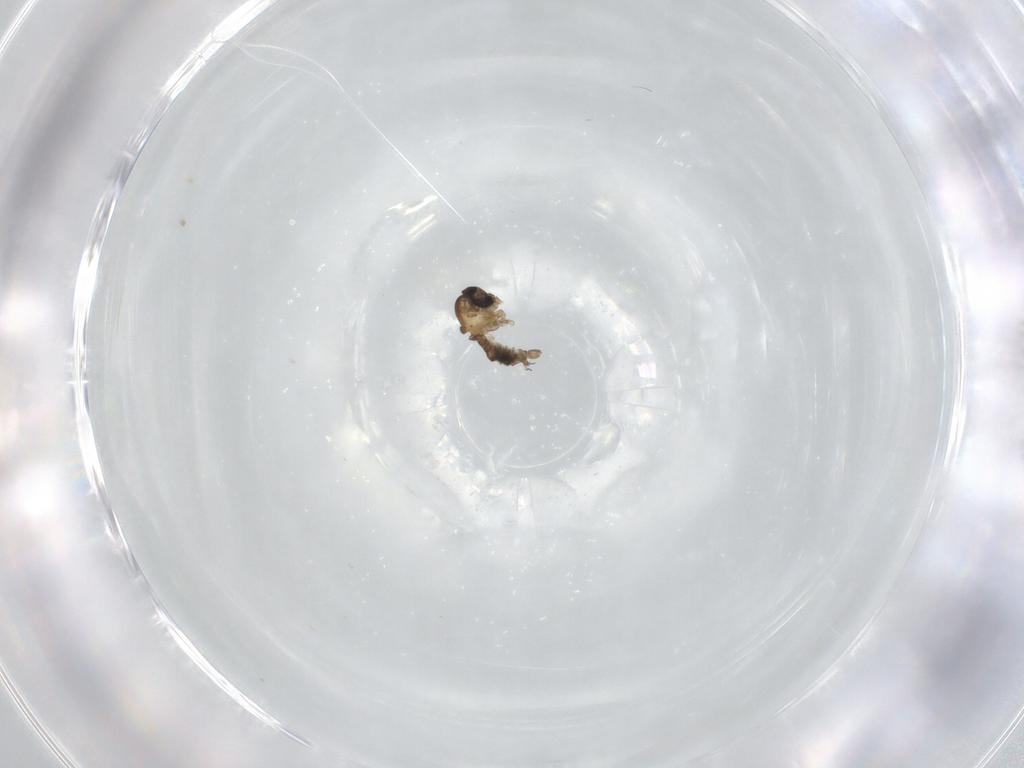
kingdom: Animalia
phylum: Arthropoda
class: Insecta
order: Diptera
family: Psychodidae
